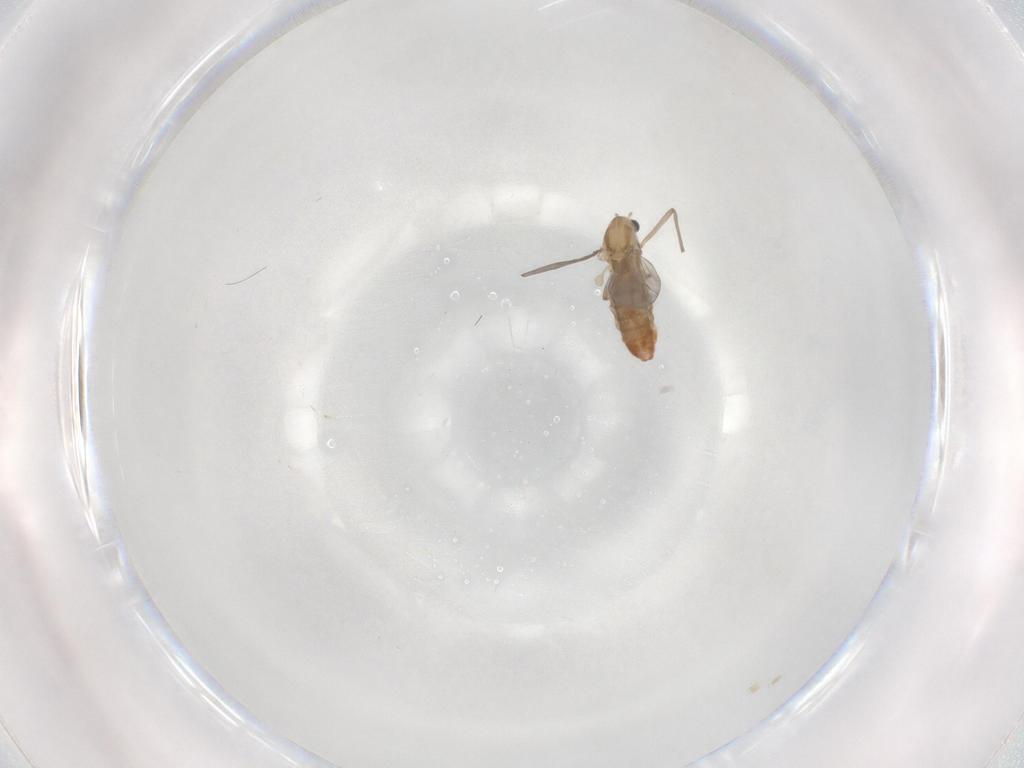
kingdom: Animalia
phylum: Arthropoda
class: Insecta
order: Diptera
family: Chironomidae
